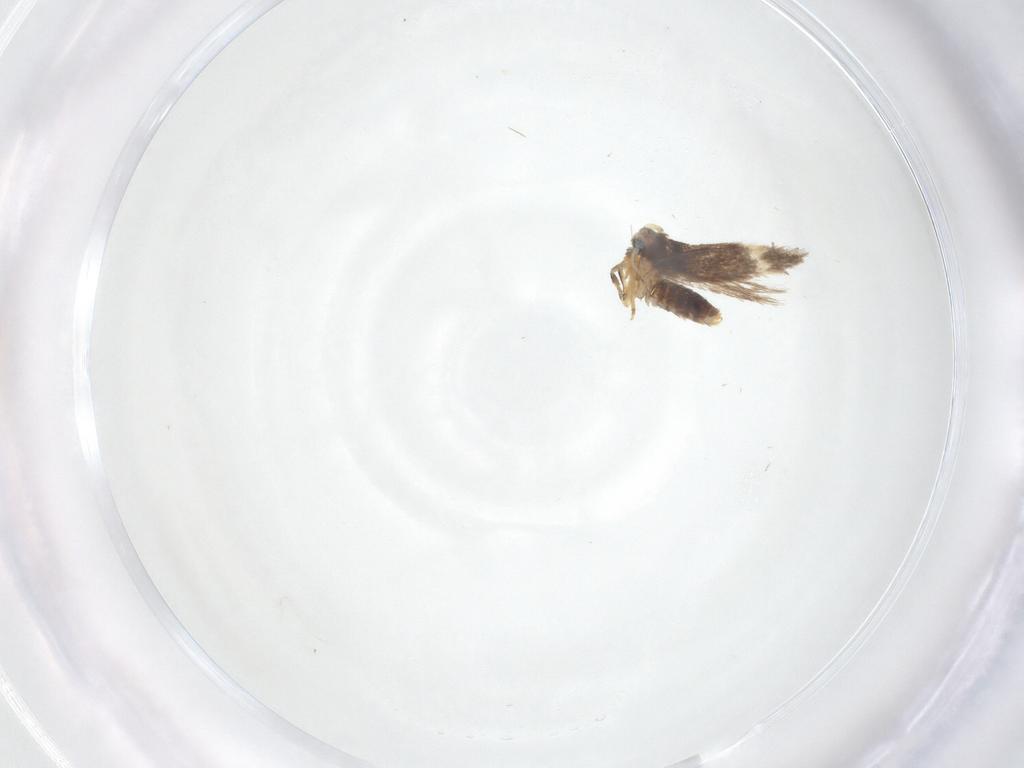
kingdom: Animalia
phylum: Arthropoda
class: Insecta
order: Lepidoptera
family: Nepticulidae
